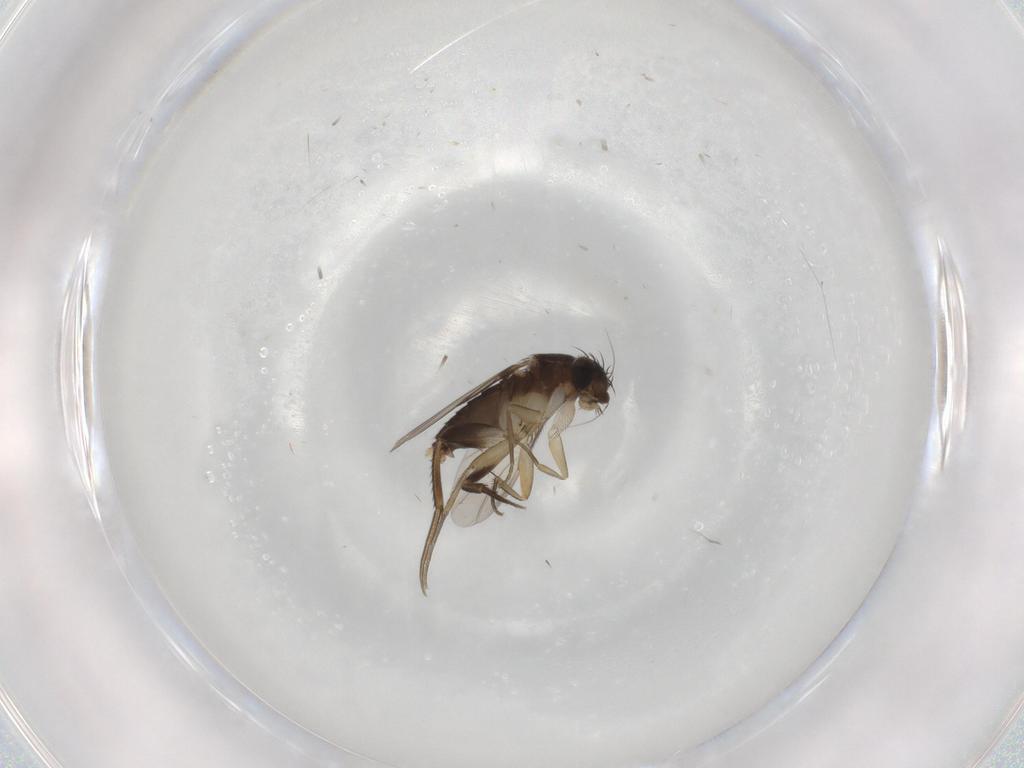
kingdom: Animalia
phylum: Arthropoda
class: Insecta
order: Diptera
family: Phoridae
